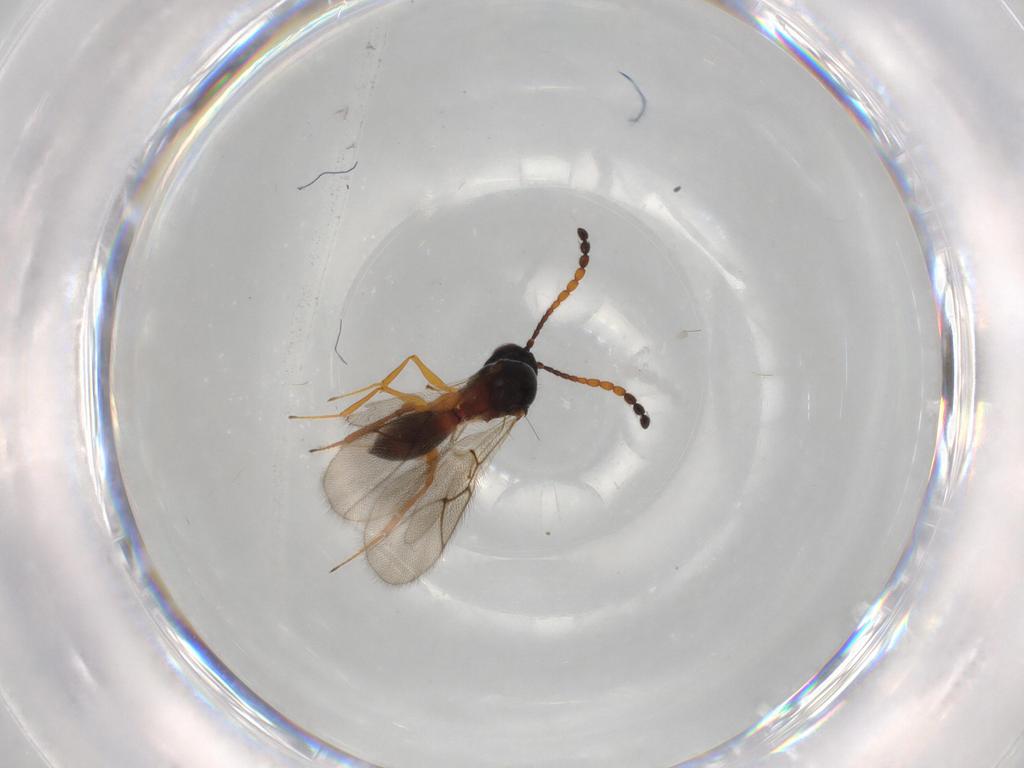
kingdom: Animalia
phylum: Arthropoda
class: Insecta
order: Hymenoptera
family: Figitidae
